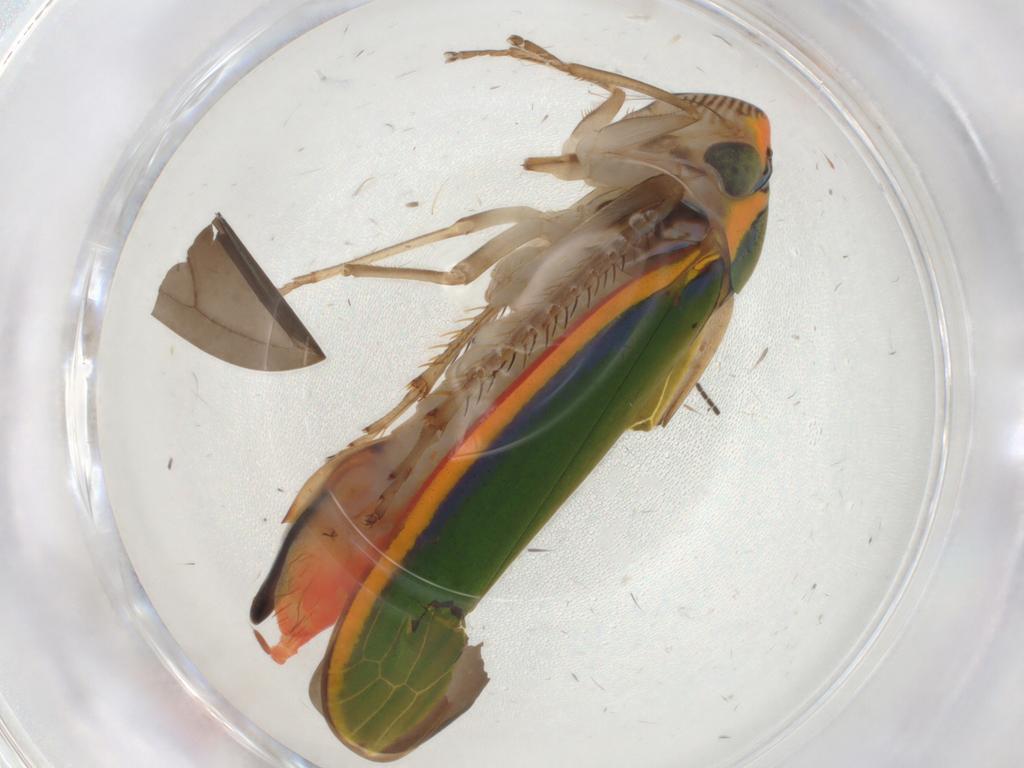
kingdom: Animalia
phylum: Arthropoda
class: Insecta
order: Hemiptera
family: Cicadellidae
